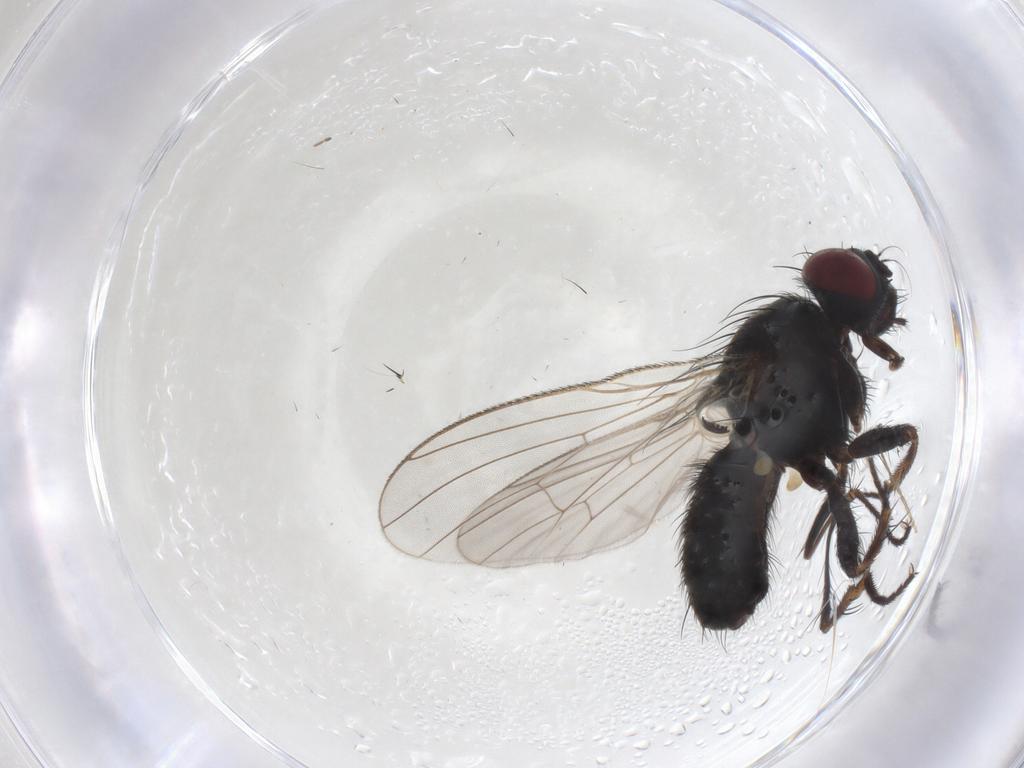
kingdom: Animalia
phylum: Arthropoda
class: Insecta
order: Diptera
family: Muscidae
